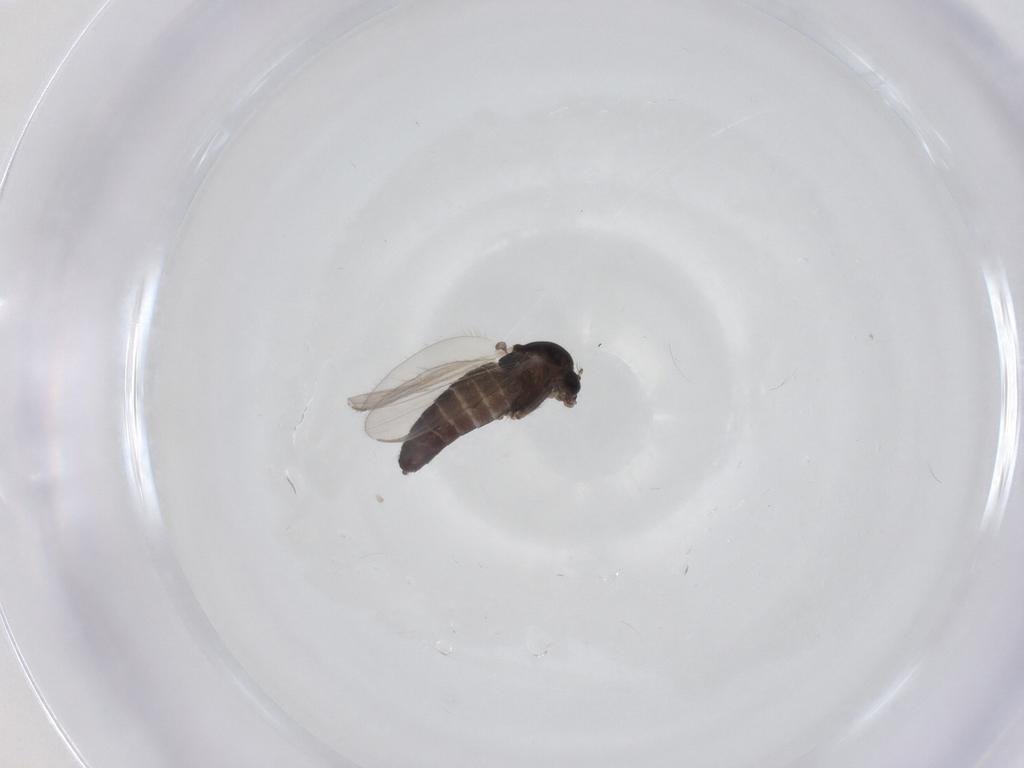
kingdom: Animalia
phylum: Arthropoda
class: Insecta
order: Diptera
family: Chironomidae
